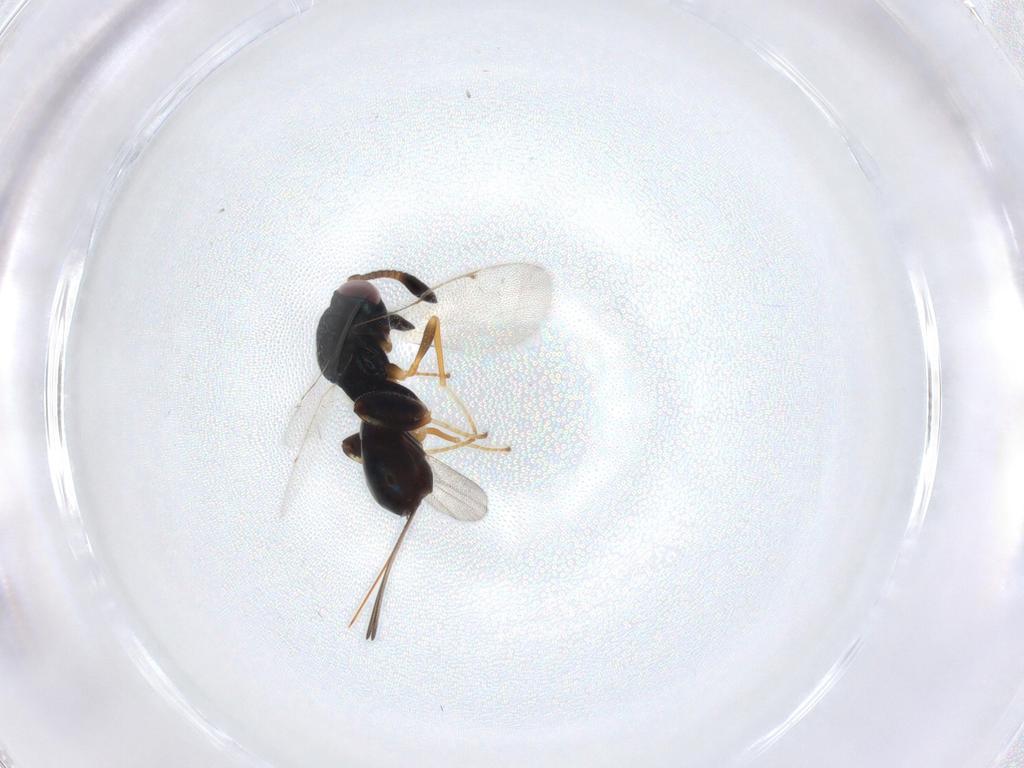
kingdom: Animalia
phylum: Arthropoda
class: Insecta
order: Hymenoptera
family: Torymidae
